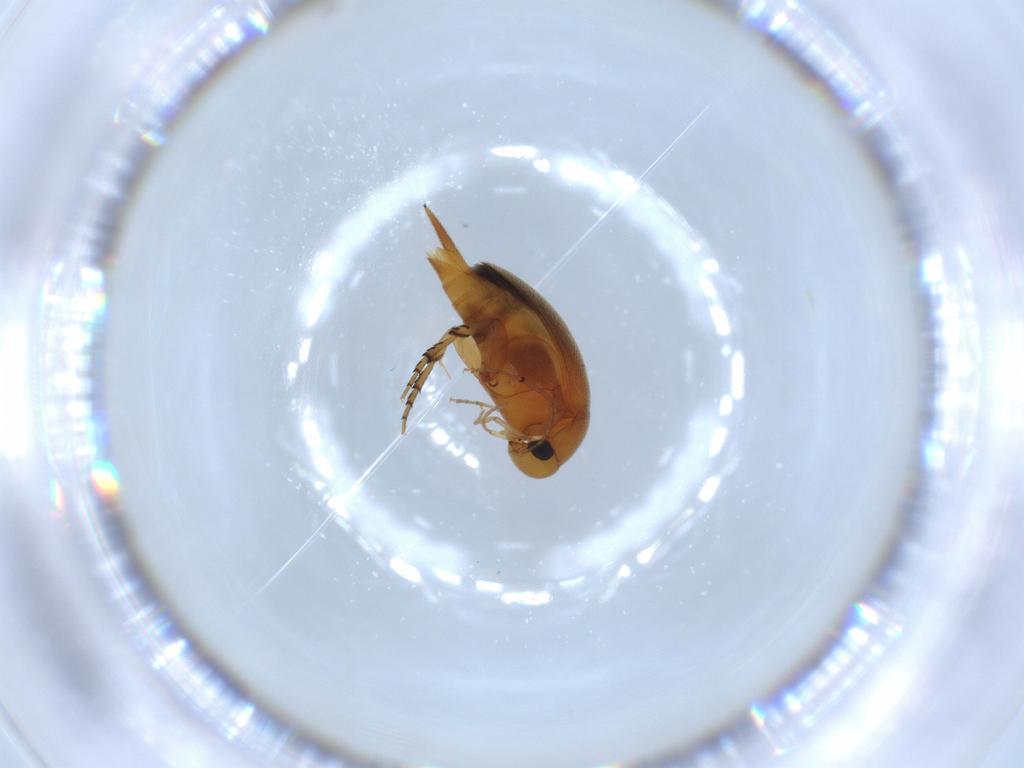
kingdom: Animalia
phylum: Arthropoda
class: Insecta
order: Coleoptera
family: Mordellidae
